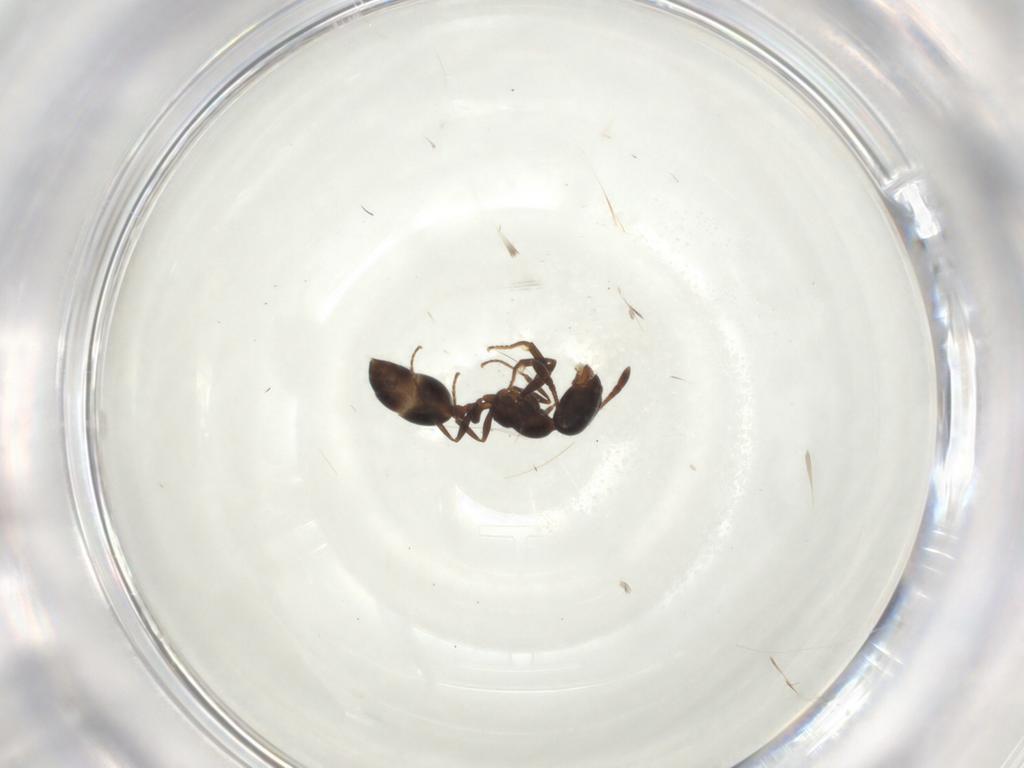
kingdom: Animalia
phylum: Arthropoda
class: Insecta
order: Hymenoptera
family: Formicidae
